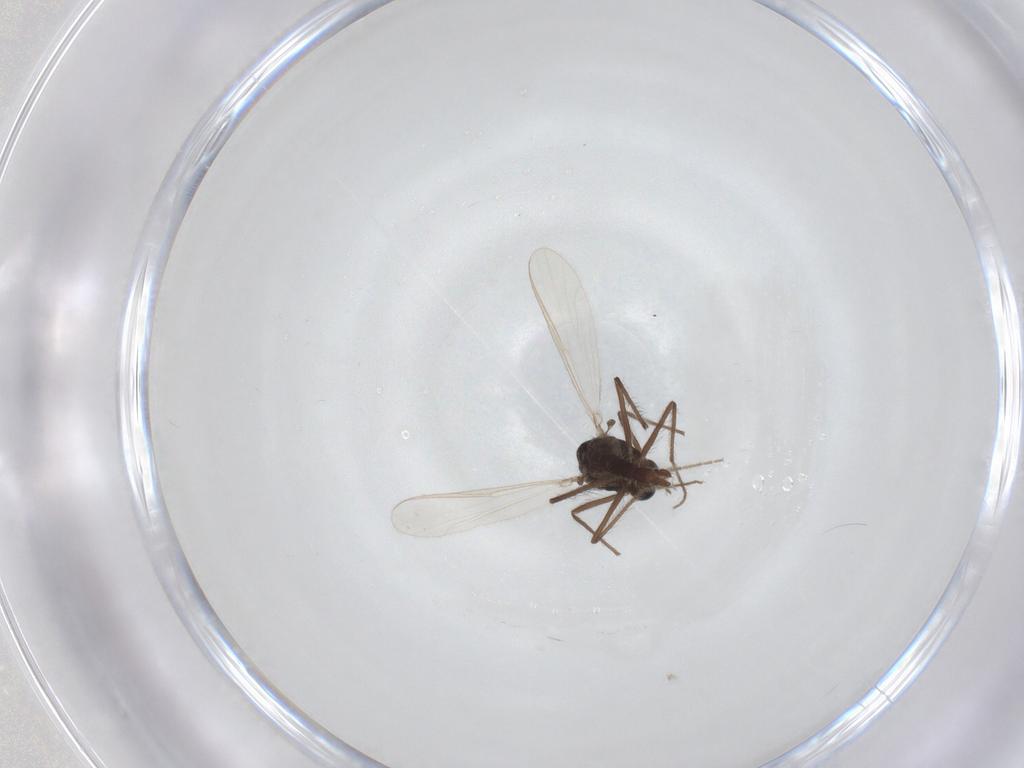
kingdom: Animalia
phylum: Arthropoda
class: Insecta
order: Diptera
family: Chironomidae
